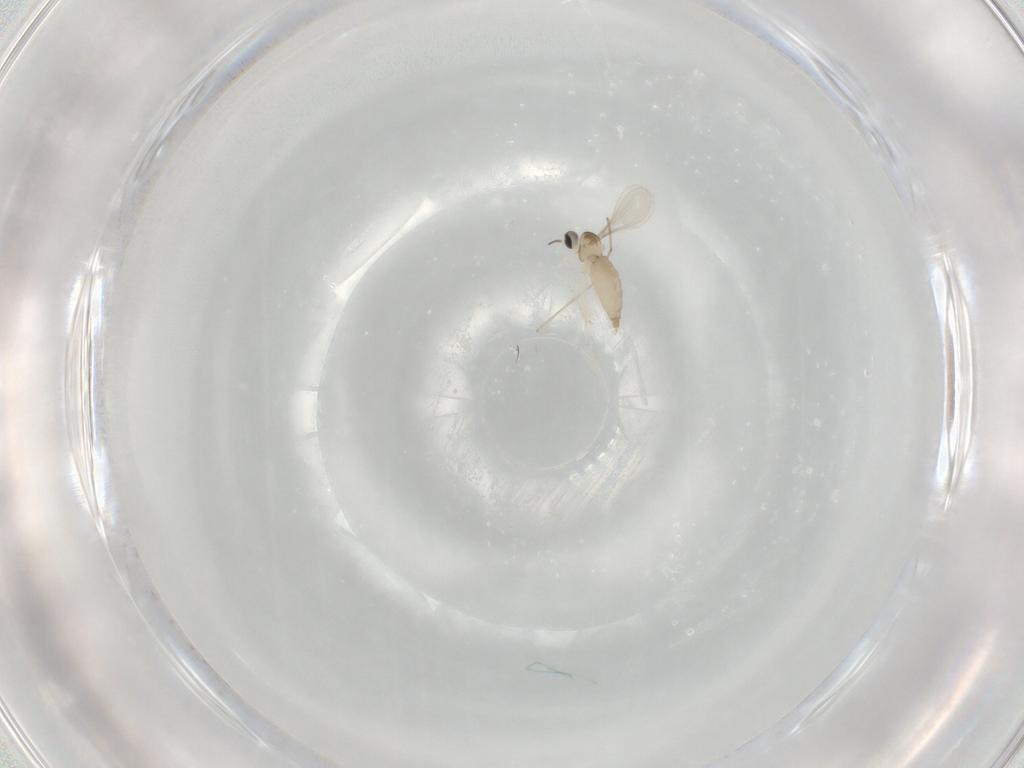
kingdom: Animalia
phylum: Arthropoda
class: Insecta
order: Diptera
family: Cecidomyiidae
